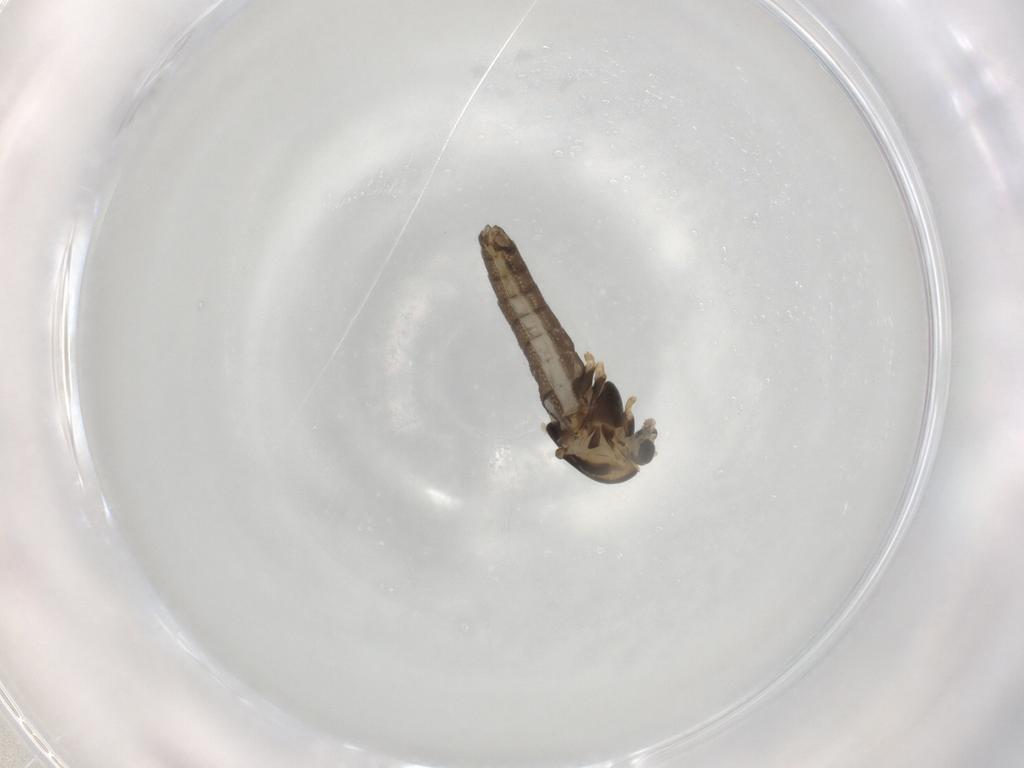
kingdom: Animalia
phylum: Arthropoda
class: Insecta
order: Diptera
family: Chironomidae
